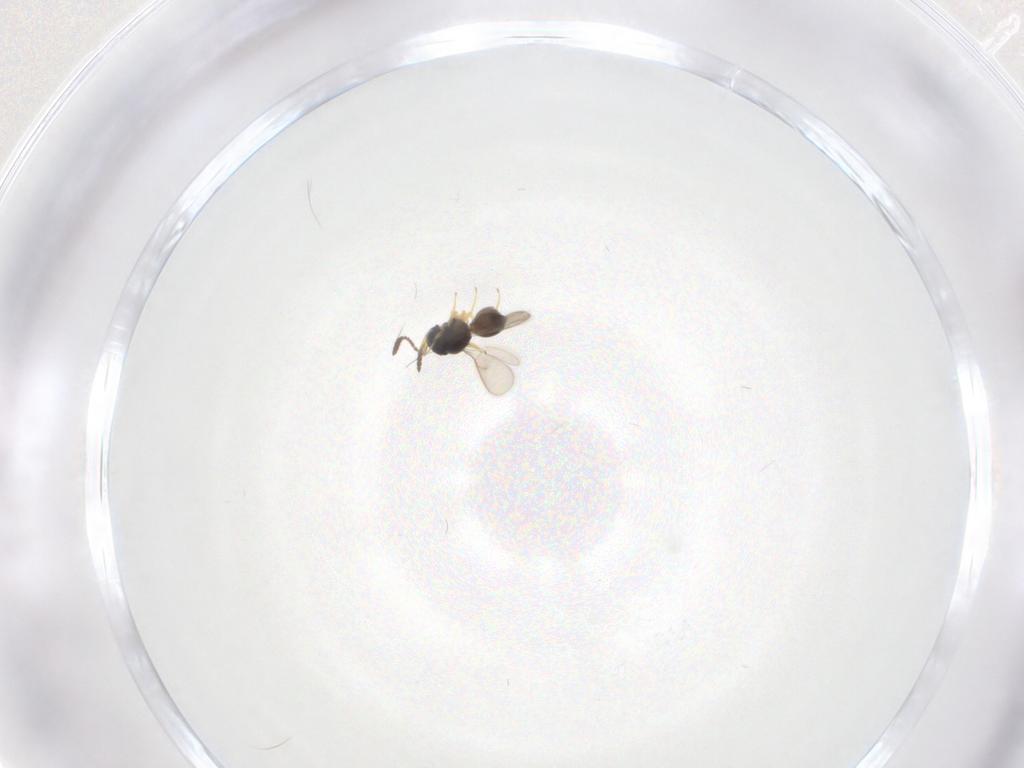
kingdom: Animalia
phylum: Arthropoda
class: Insecta
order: Hymenoptera
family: Scelionidae
